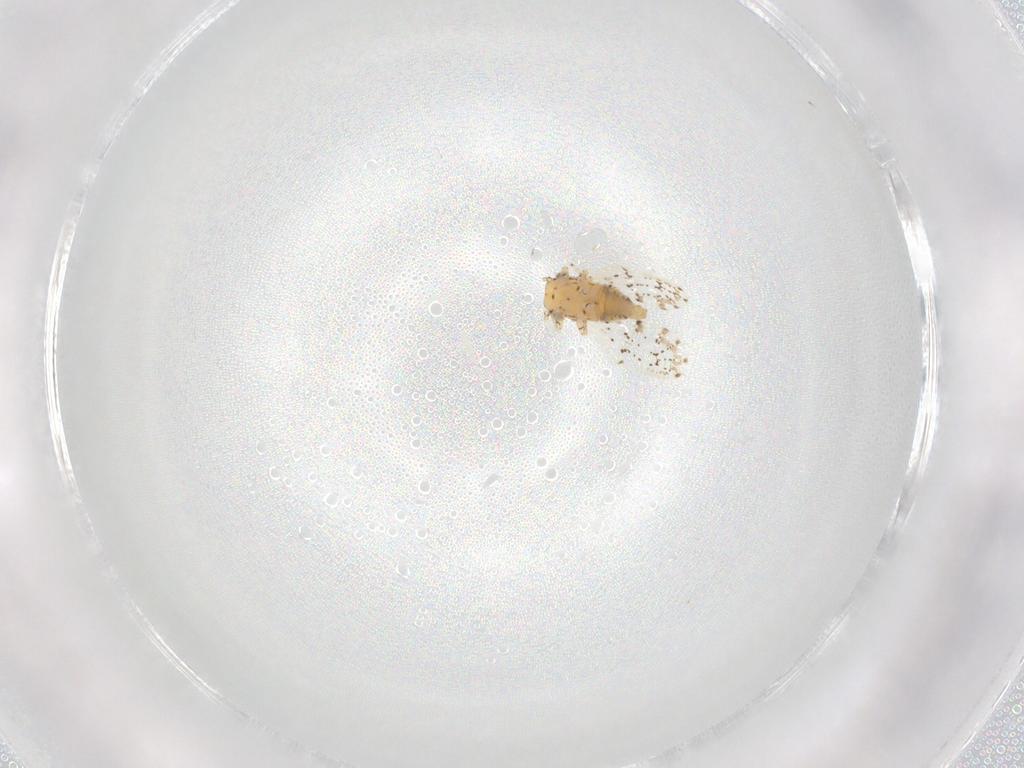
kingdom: Animalia
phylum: Arthropoda
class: Insecta
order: Hemiptera
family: Psylloidea_incertae_sedis
